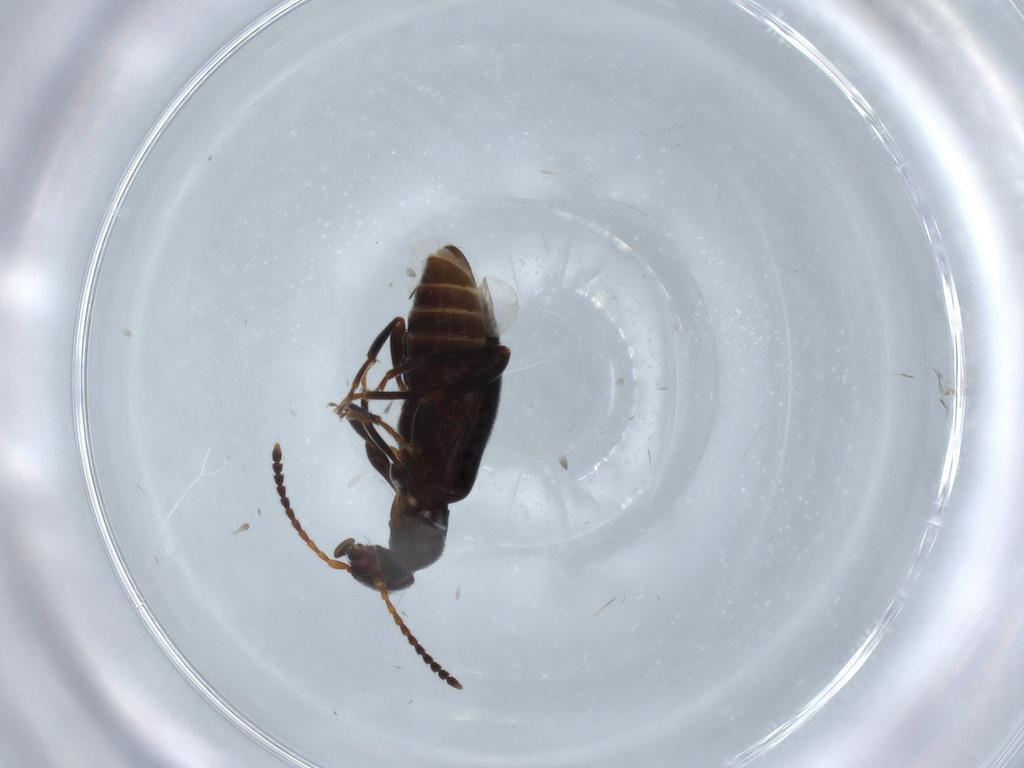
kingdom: Animalia
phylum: Arthropoda
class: Insecta
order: Coleoptera
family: Anthicidae
